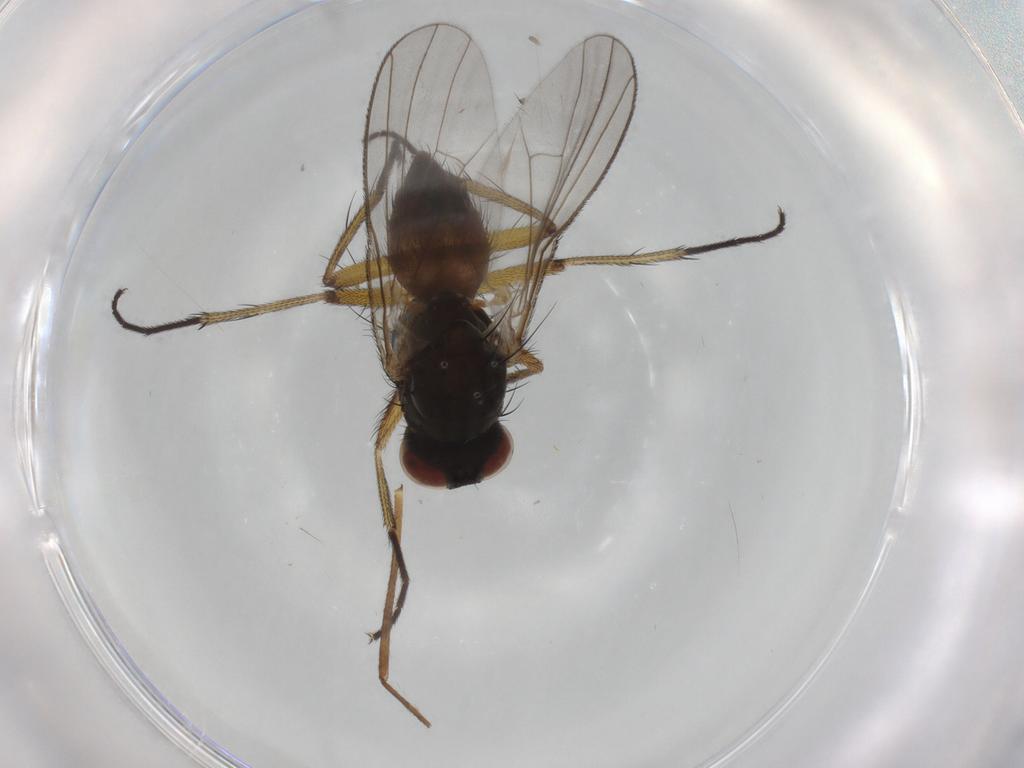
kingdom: Animalia
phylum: Arthropoda
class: Insecta
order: Diptera
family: Muscidae
